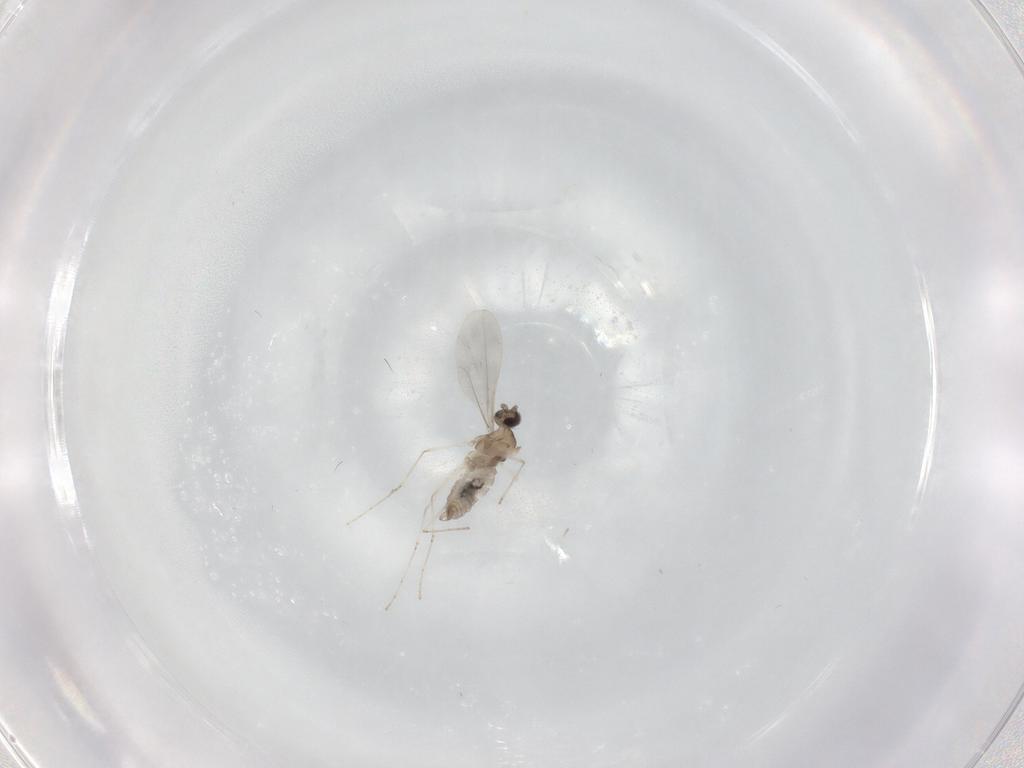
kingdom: Animalia
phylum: Arthropoda
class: Insecta
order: Diptera
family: Cecidomyiidae
